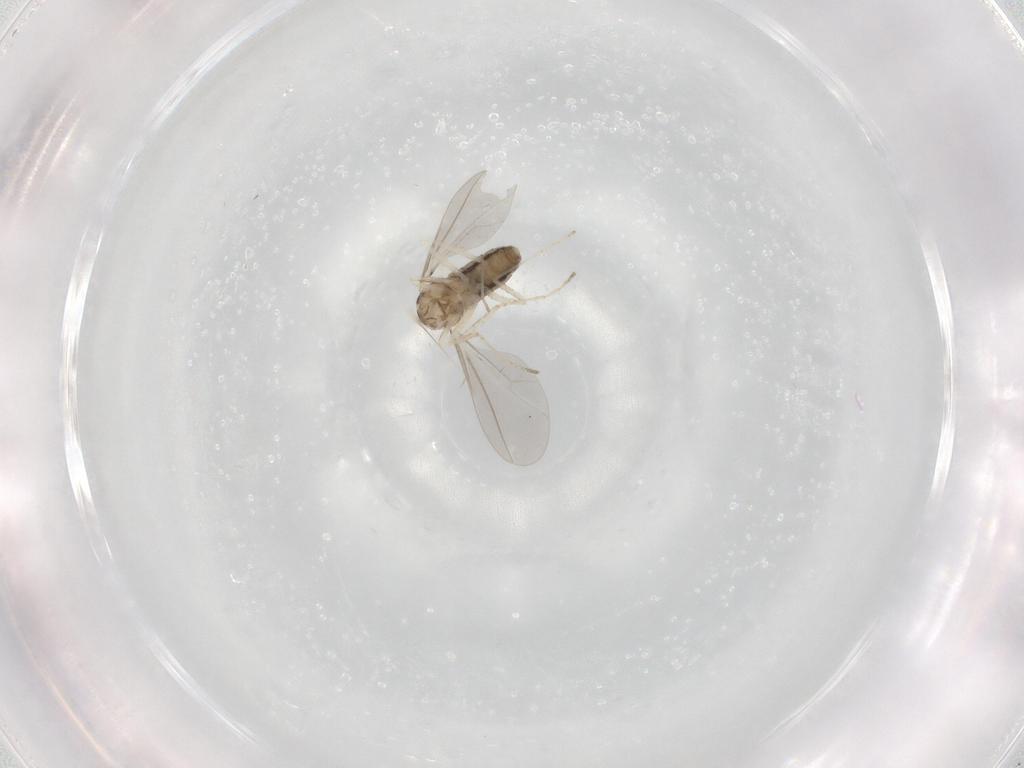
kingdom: Animalia
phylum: Arthropoda
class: Insecta
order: Diptera
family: Cecidomyiidae
